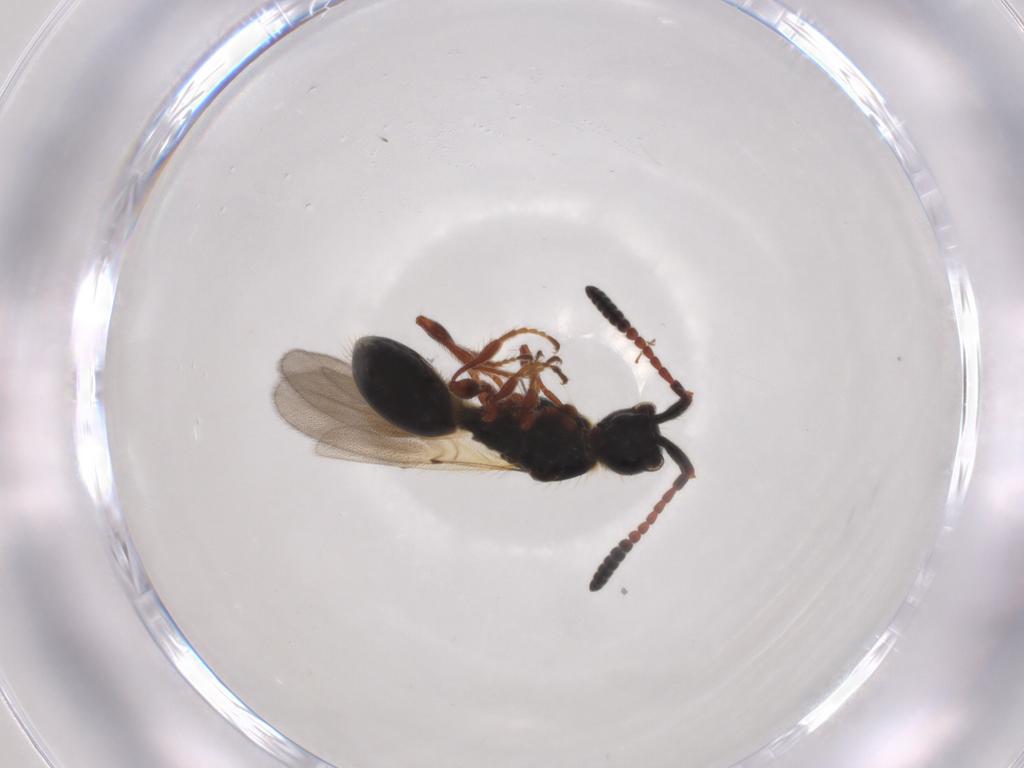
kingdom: Animalia
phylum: Arthropoda
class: Insecta
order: Hymenoptera
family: Diapriidae
